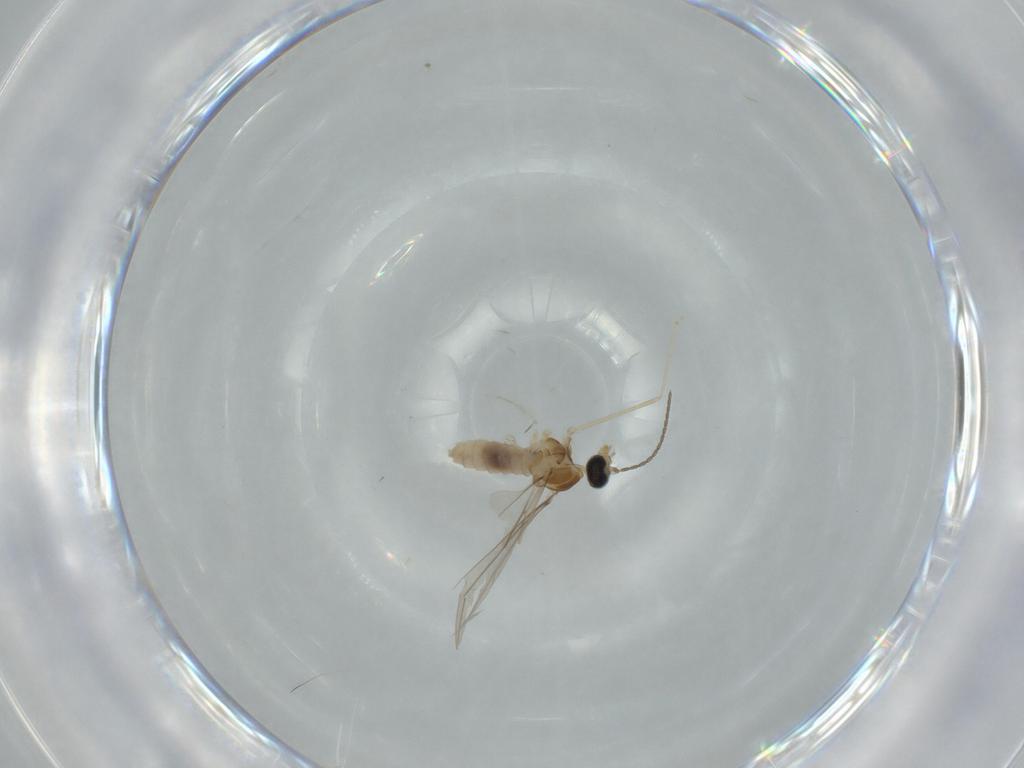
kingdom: Animalia
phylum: Arthropoda
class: Insecta
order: Diptera
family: Cecidomyiidae
